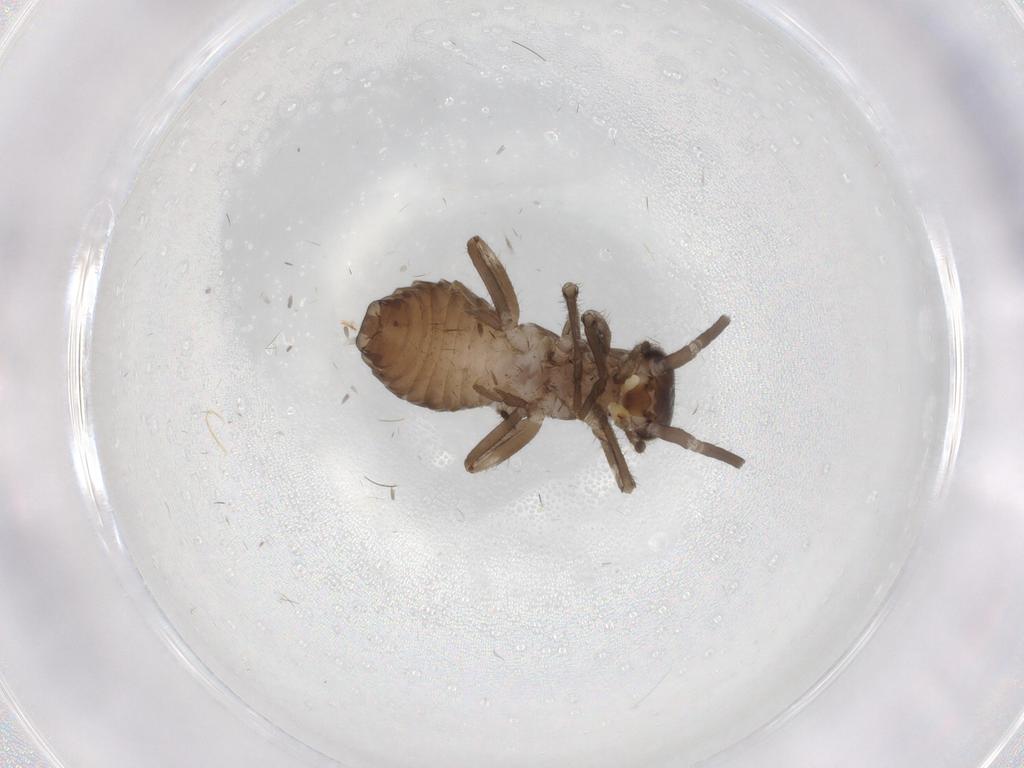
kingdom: Animalia
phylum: Arthropoda
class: Insecta
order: Dermaptera
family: Forficulidae
